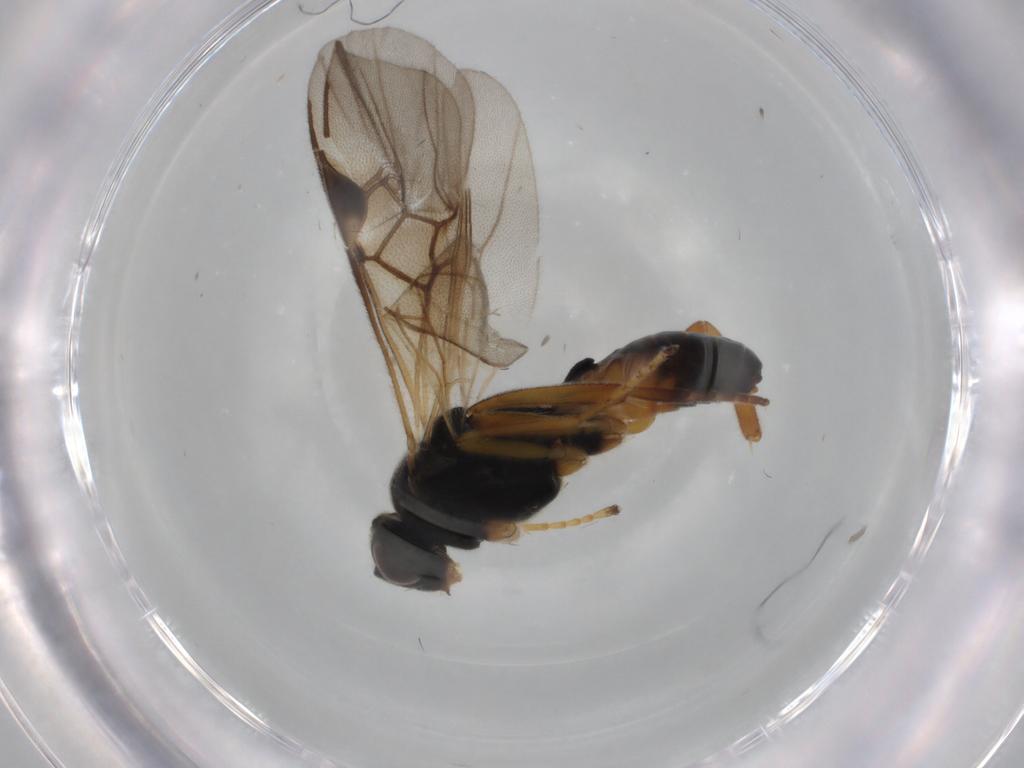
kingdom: Animalia
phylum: Arthropoda
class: Insecta
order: Hymenoptera
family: Braconidae
